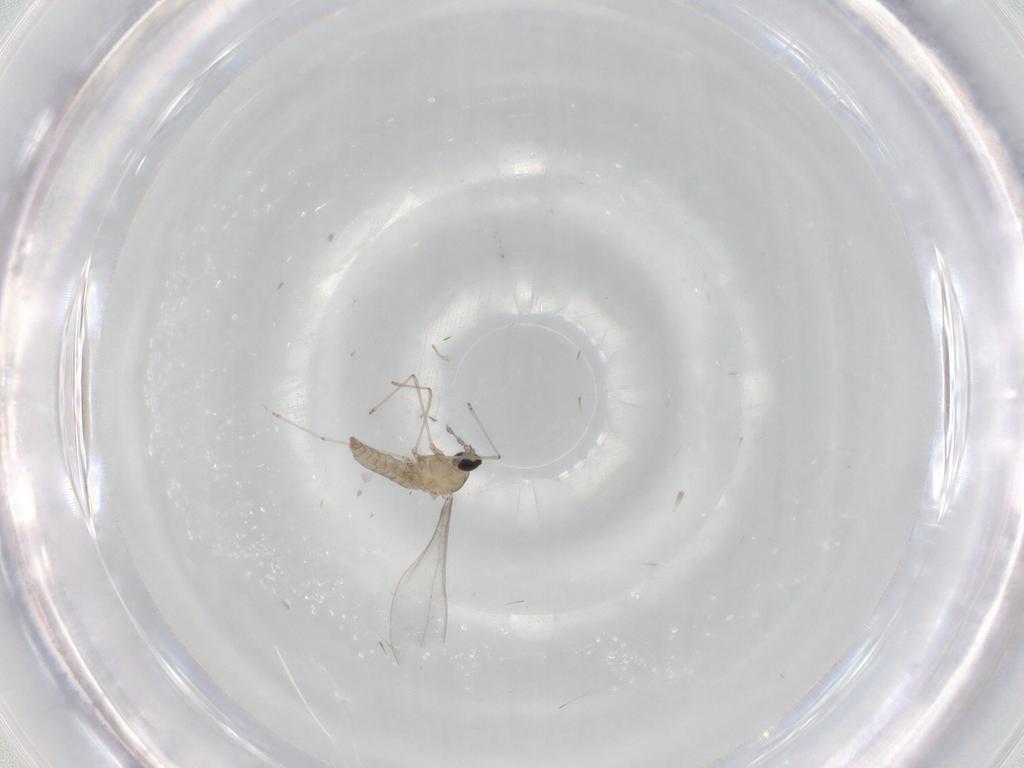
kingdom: Animalia
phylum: Arthropoda
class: Insecta
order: Diptera
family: Cecidomyiidae
